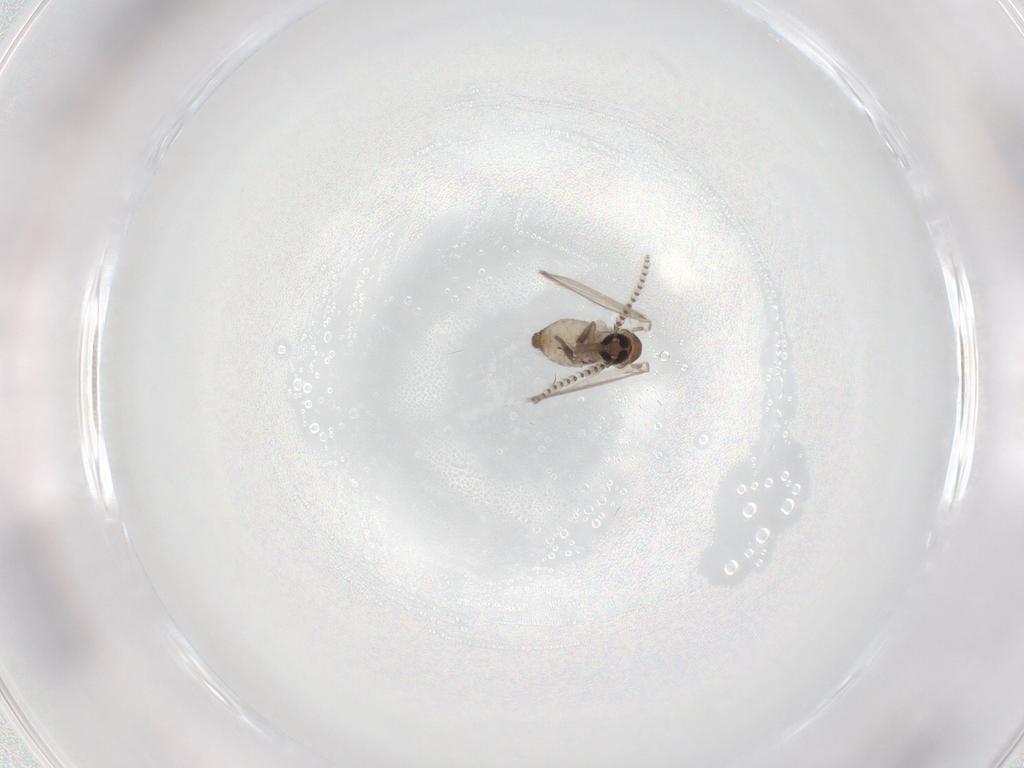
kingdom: Animalia
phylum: Arthropoda
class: Insecta
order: Diptera
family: Psychodidae
